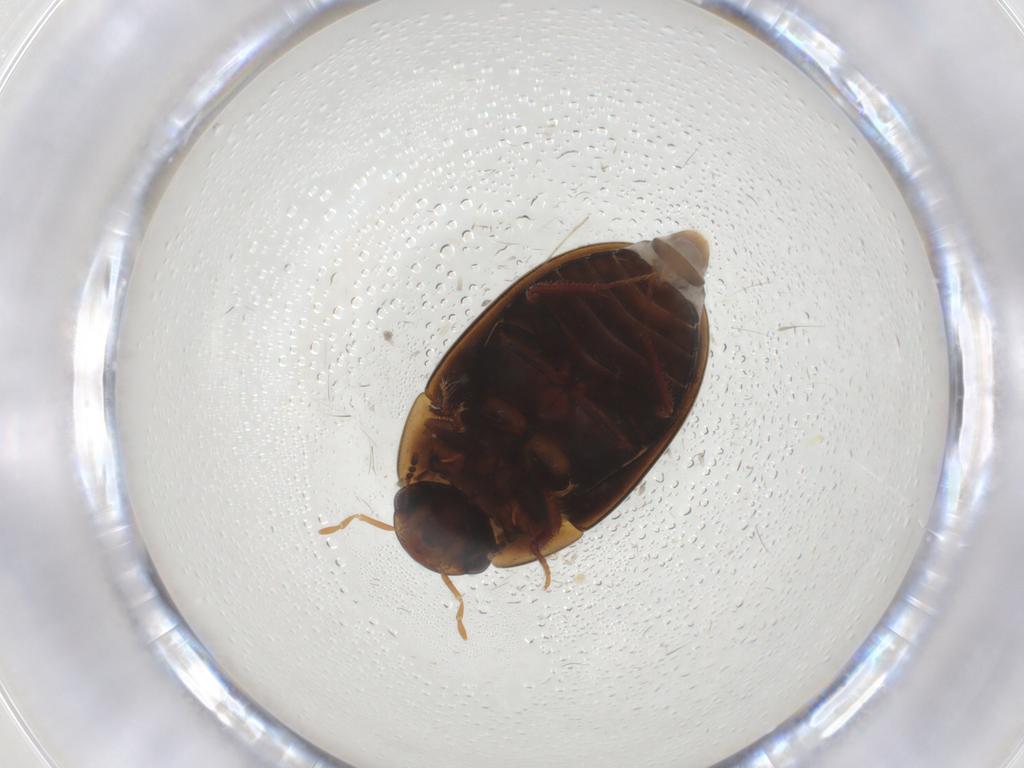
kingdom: Animalia
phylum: Arthropoda
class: Insecta
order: Coleoptera
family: Hydrophilidae
